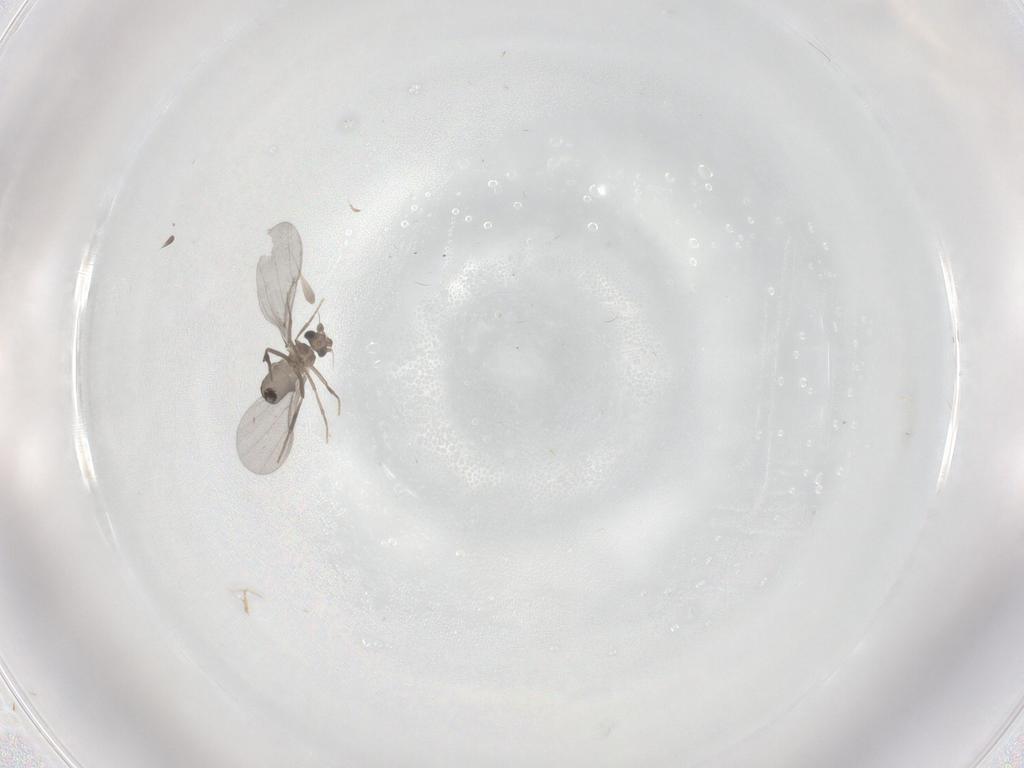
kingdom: Animalia
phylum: Arthropoda
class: Insecta
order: Diptera
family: Phoridae
